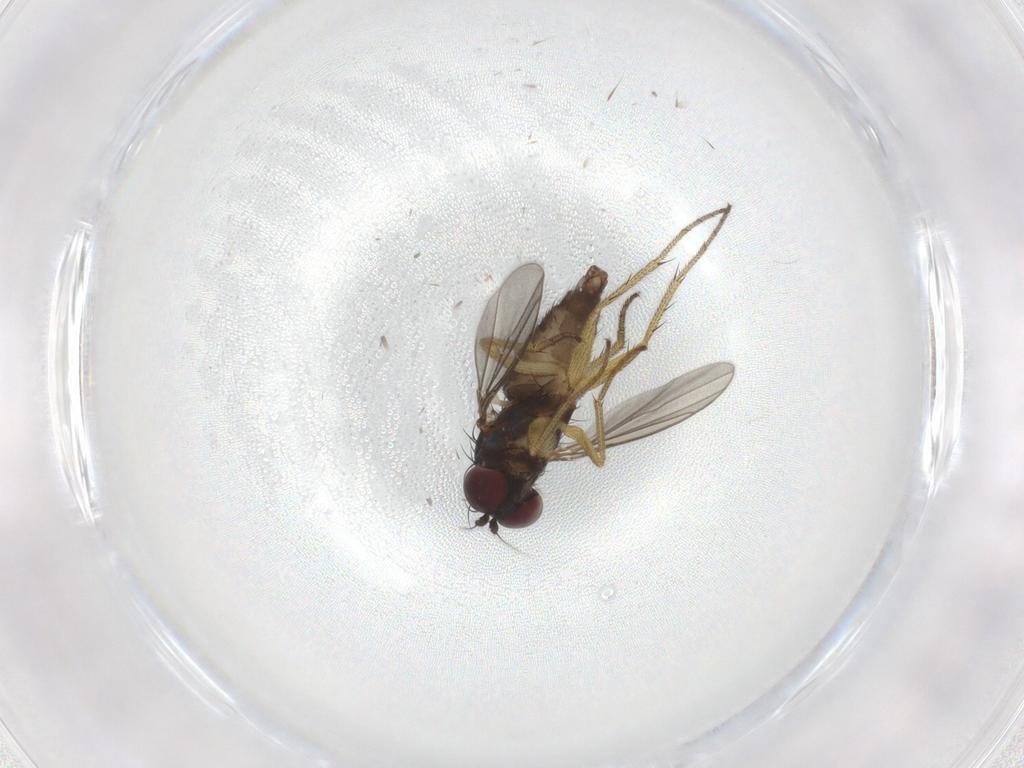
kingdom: Animalia
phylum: Arthropoda
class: Insecta
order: Diptera
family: Dolichopodidae
